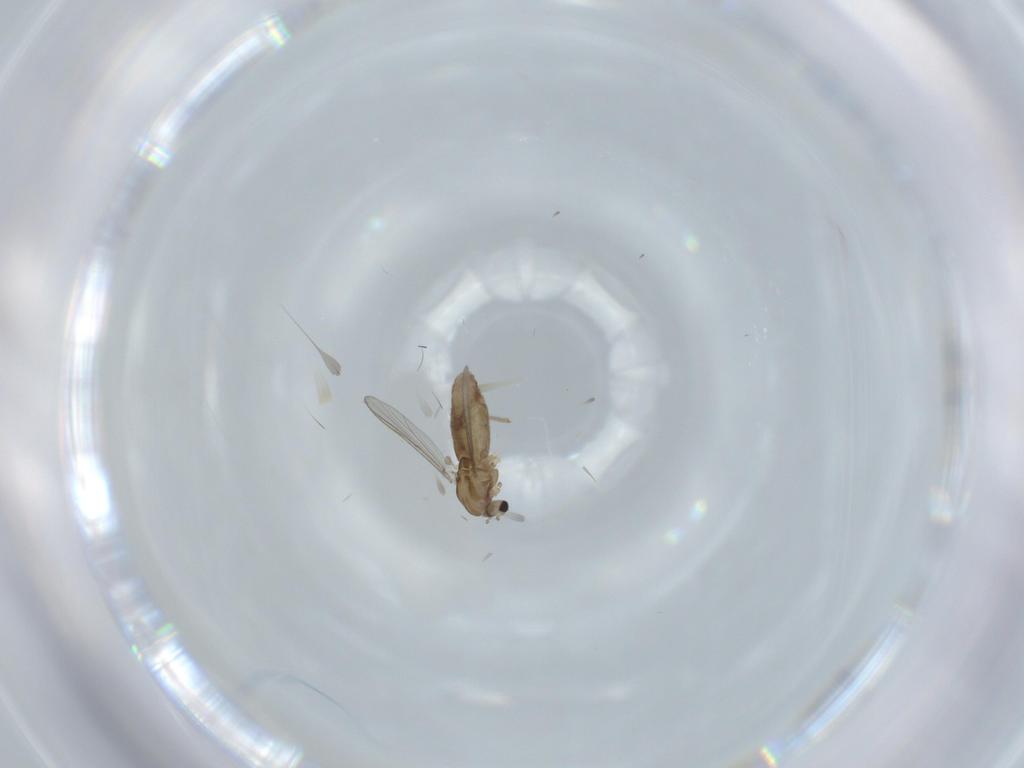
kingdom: Animalia
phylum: Arthropoda
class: Insecta
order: Diptera
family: Chironomidae
